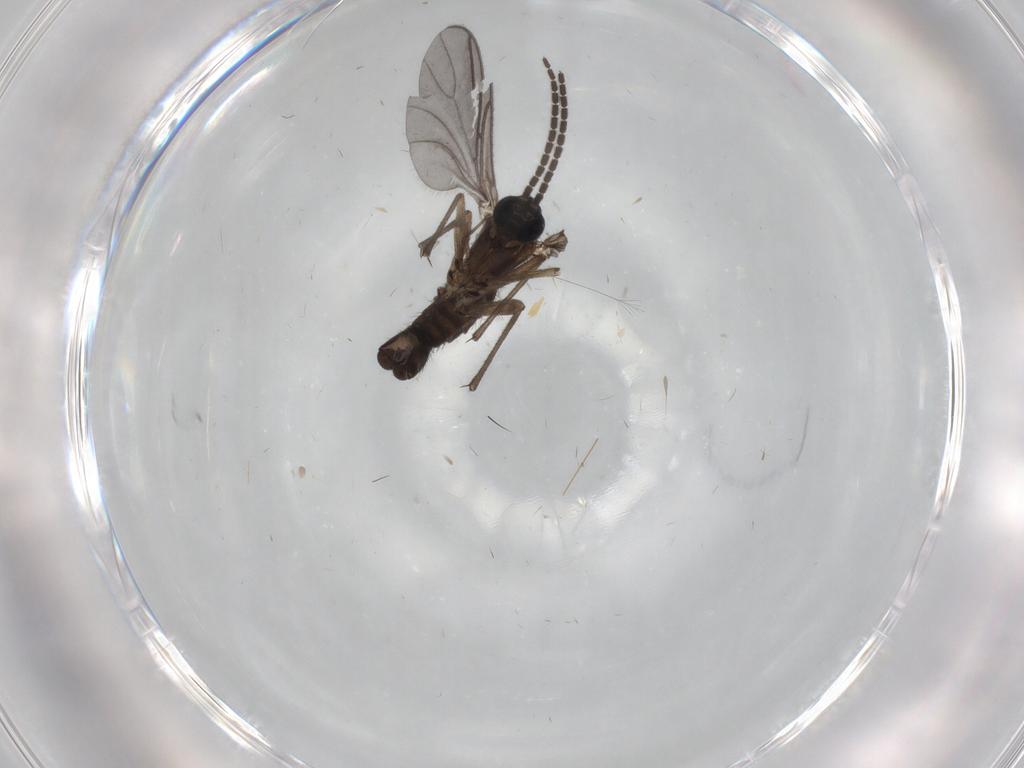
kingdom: Animalia
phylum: Arthropoda
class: Insecta
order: Diptera
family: Sciaridae
